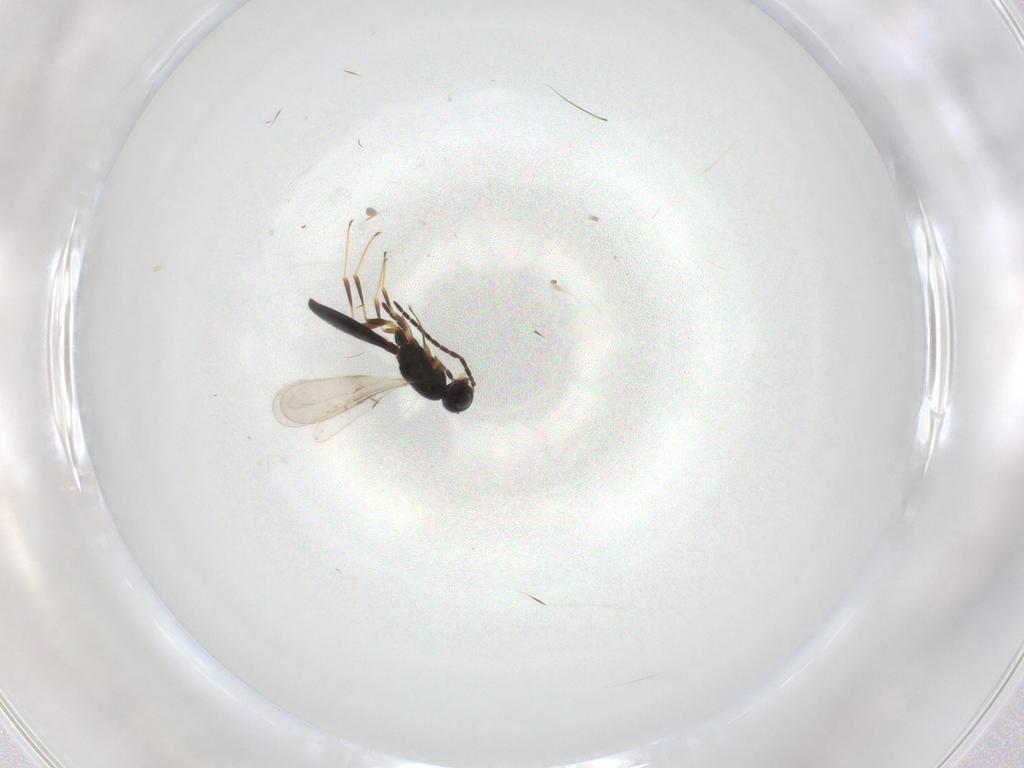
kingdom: Animalia
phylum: Arthropoda
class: Insecta
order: Hymenoptera
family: Scelionidae
